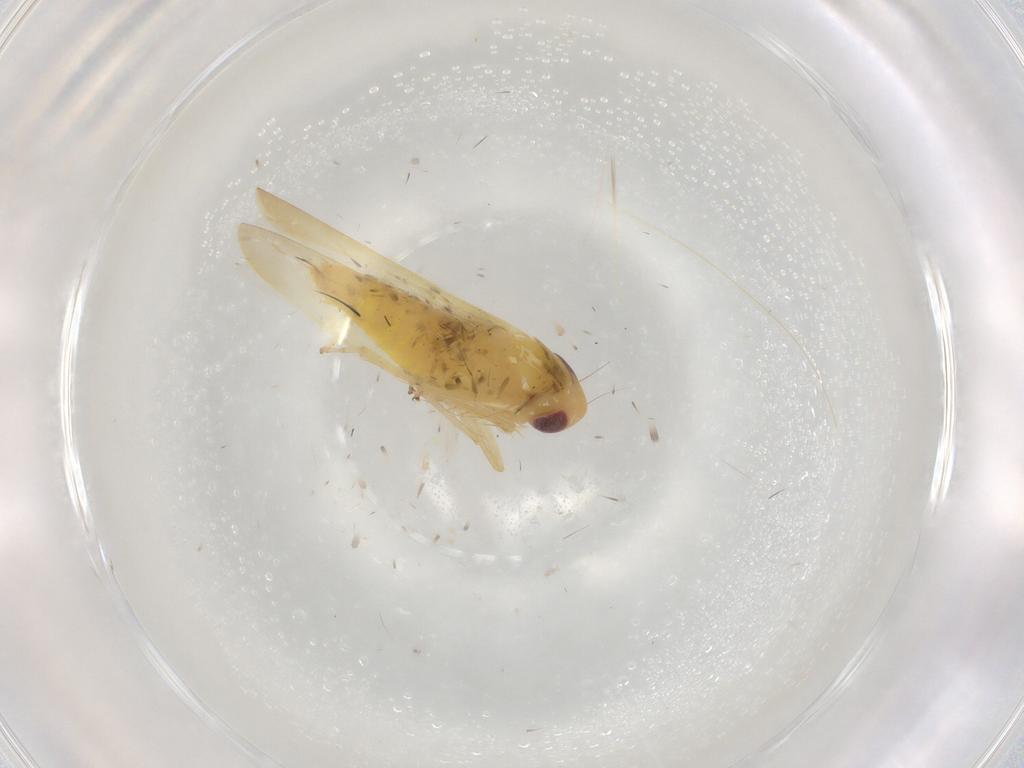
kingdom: Animalia
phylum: Arthropoda
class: Insecta
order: Hemiptera
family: Cicadellidae
